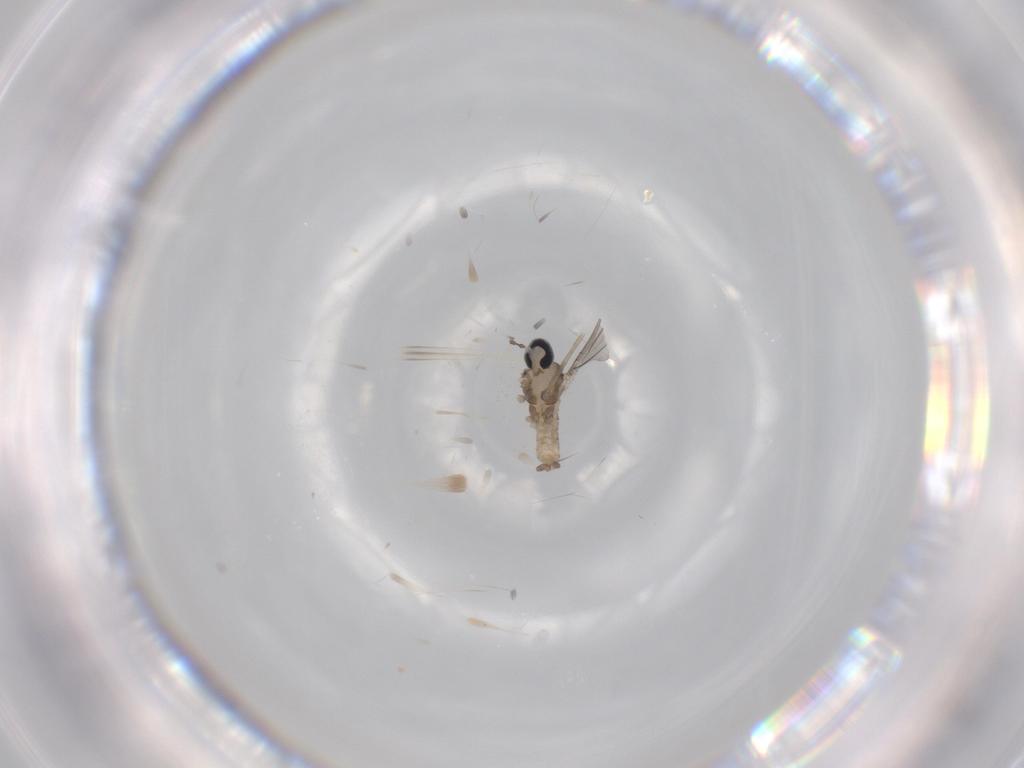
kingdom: Animalia
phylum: Arthropoda
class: Insecta
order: Diptera
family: Cecidomyiidae
